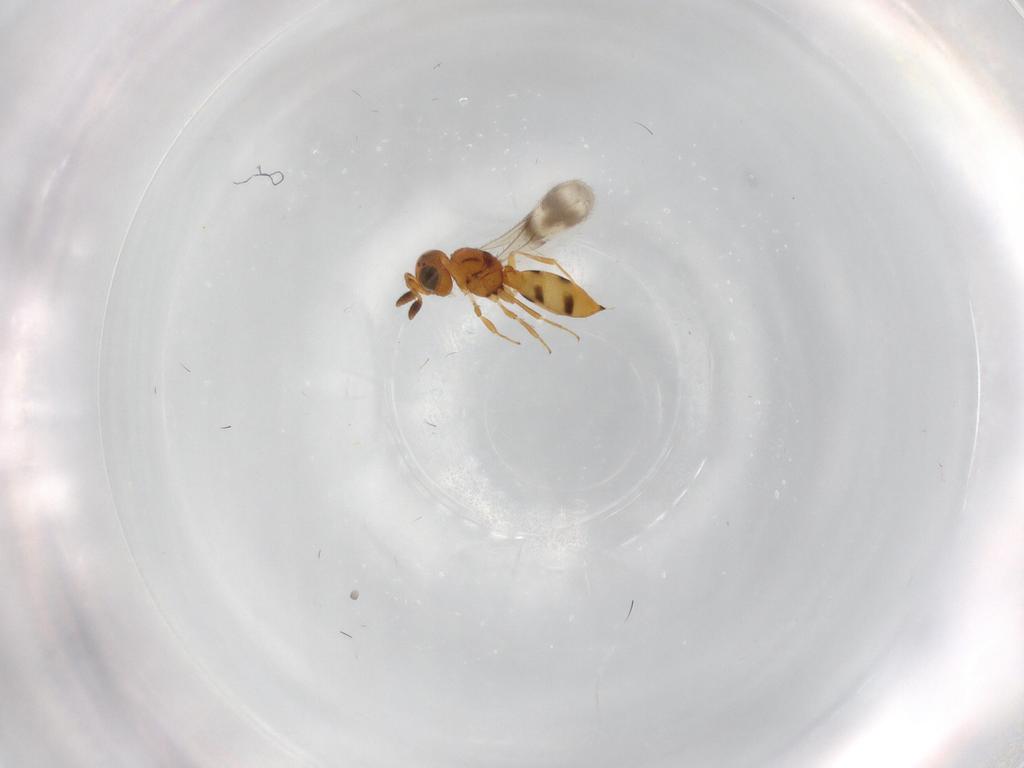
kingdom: Animalia
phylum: Arthropoda
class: Insecta
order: Hymenoptera
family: Scelionidae
